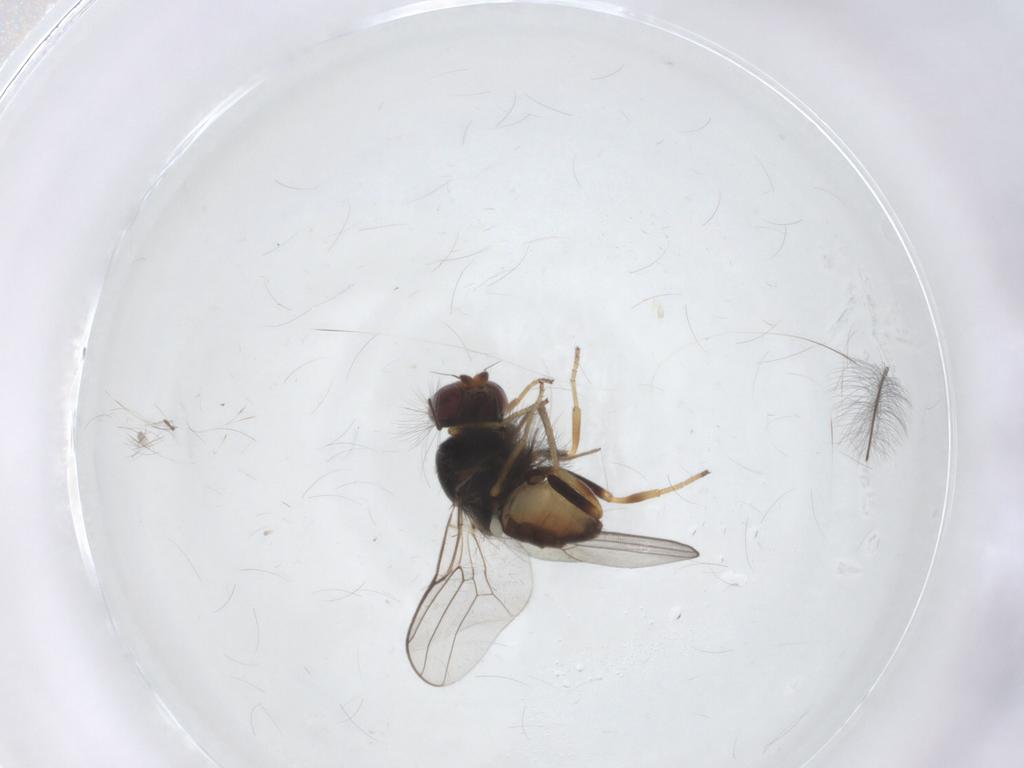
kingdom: Animalia
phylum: Arthropoda
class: Insecta
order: Diptera
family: Chloropidae
